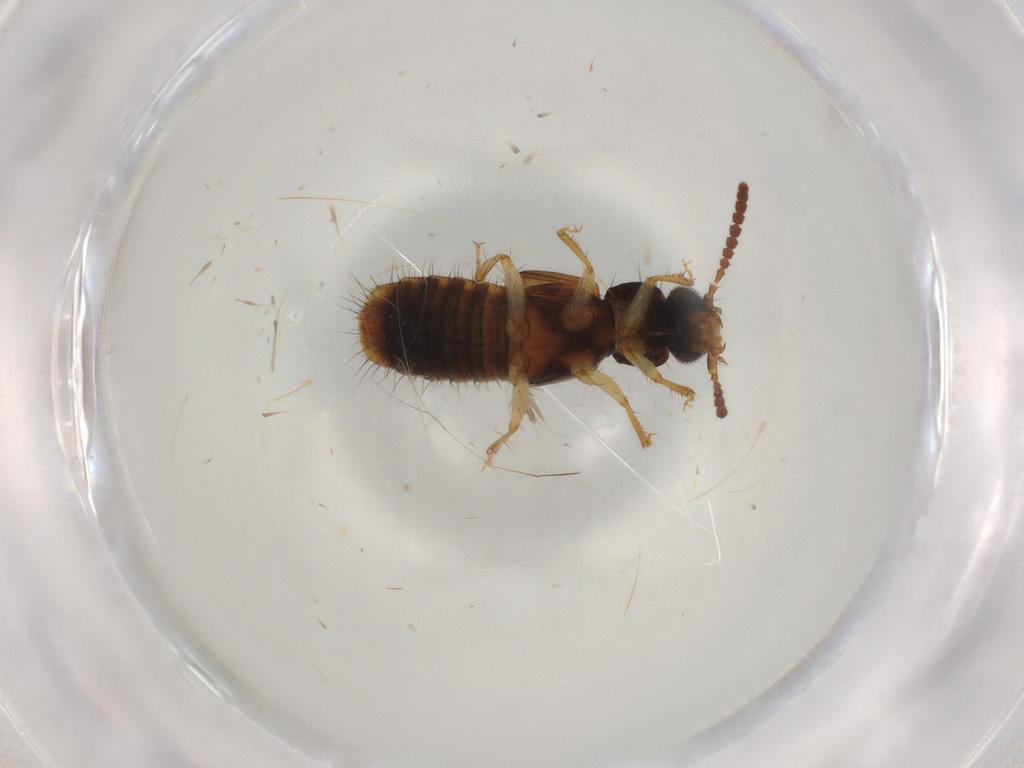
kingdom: Animalia
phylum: Arthropoda
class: Insecta
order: Coleoptera
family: Staphylinidae
